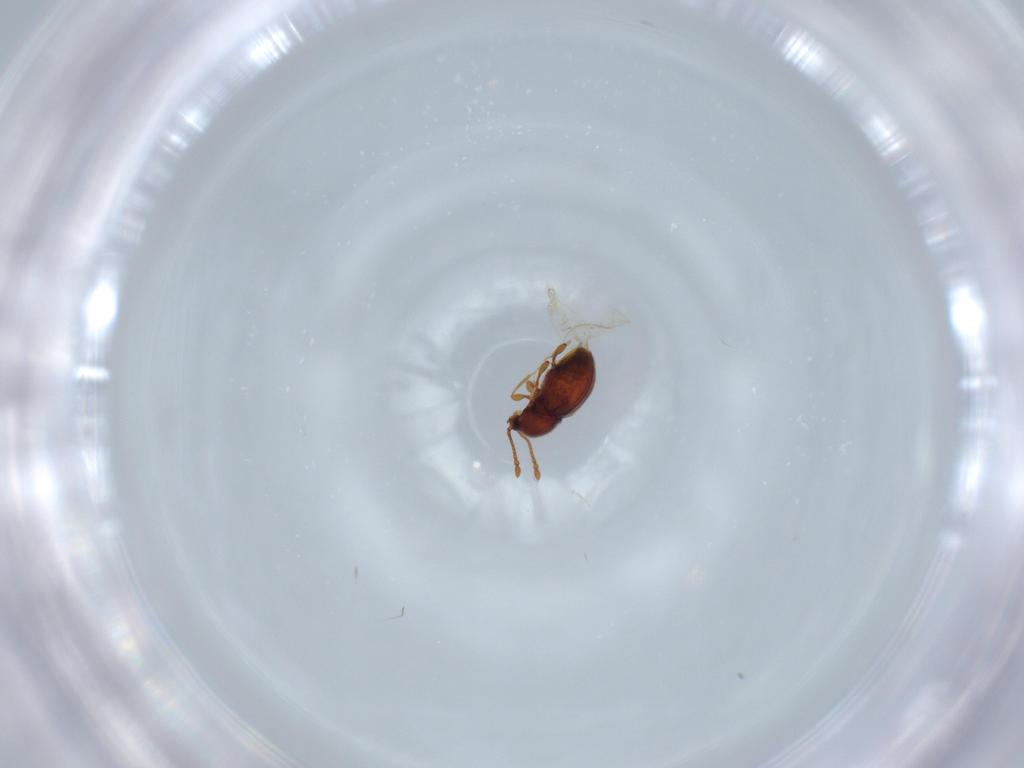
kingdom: Animalia
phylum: Arthropoda
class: Insecta
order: Coleoptera
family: Staphylinidae
